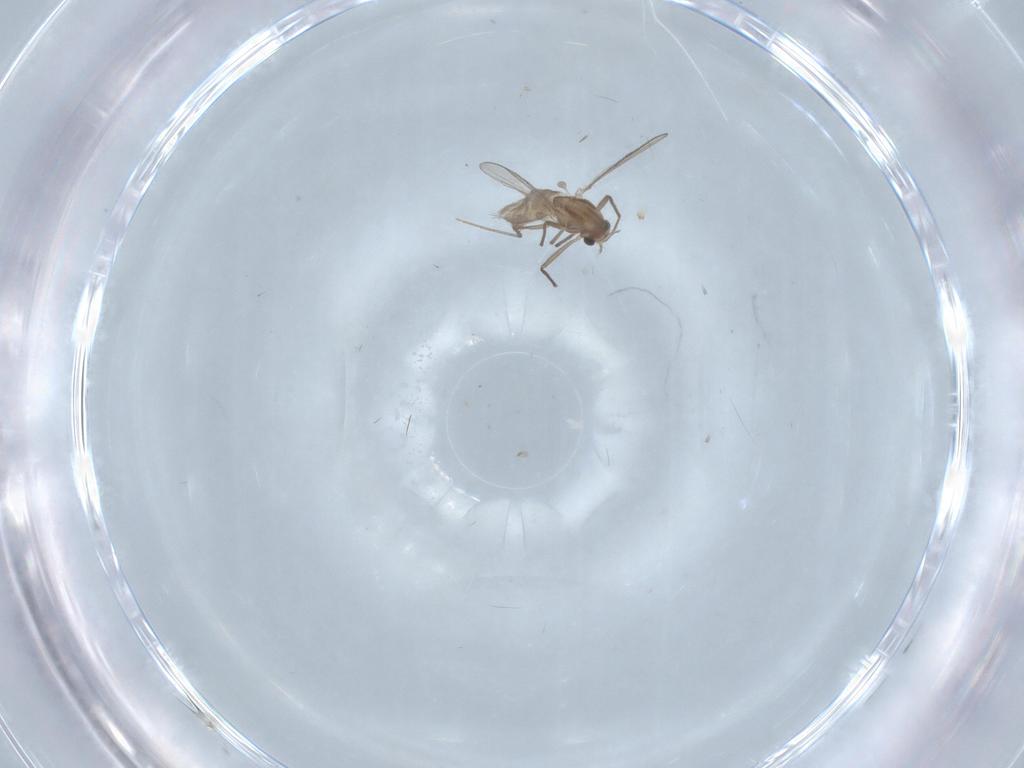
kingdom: Animalia
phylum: Arthropoda
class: Insecta
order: Diptera
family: Chironomidae
